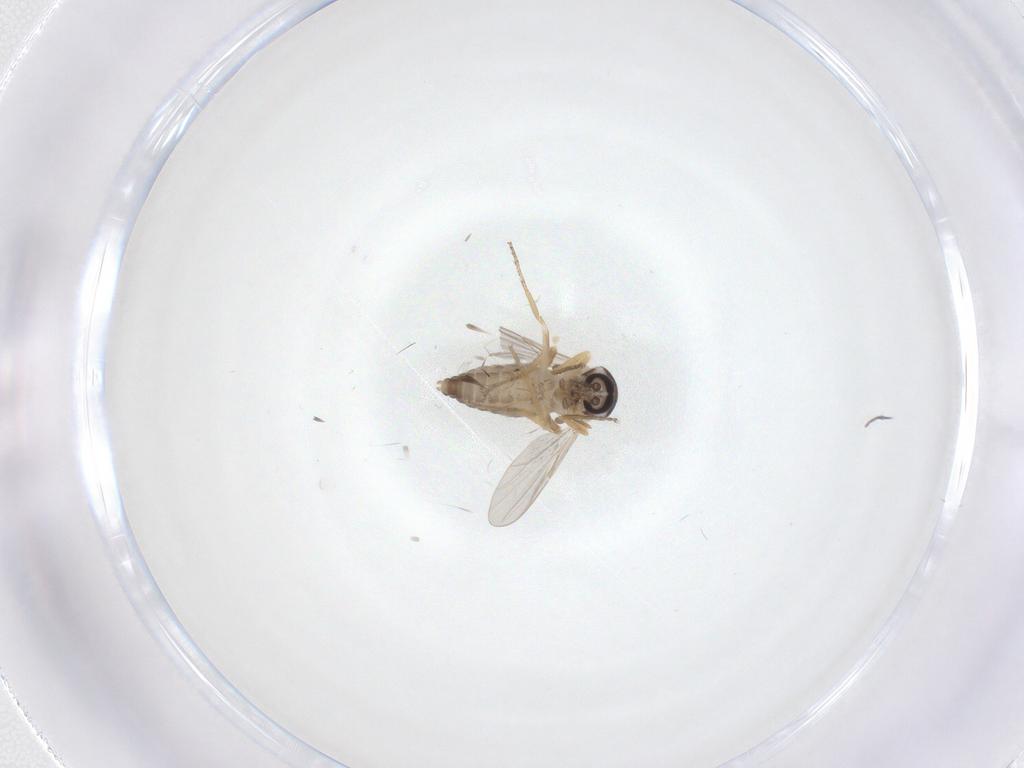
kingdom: Animalia
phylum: Arthropoda
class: Insecta
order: Diptera
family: Ceratopogonidae
